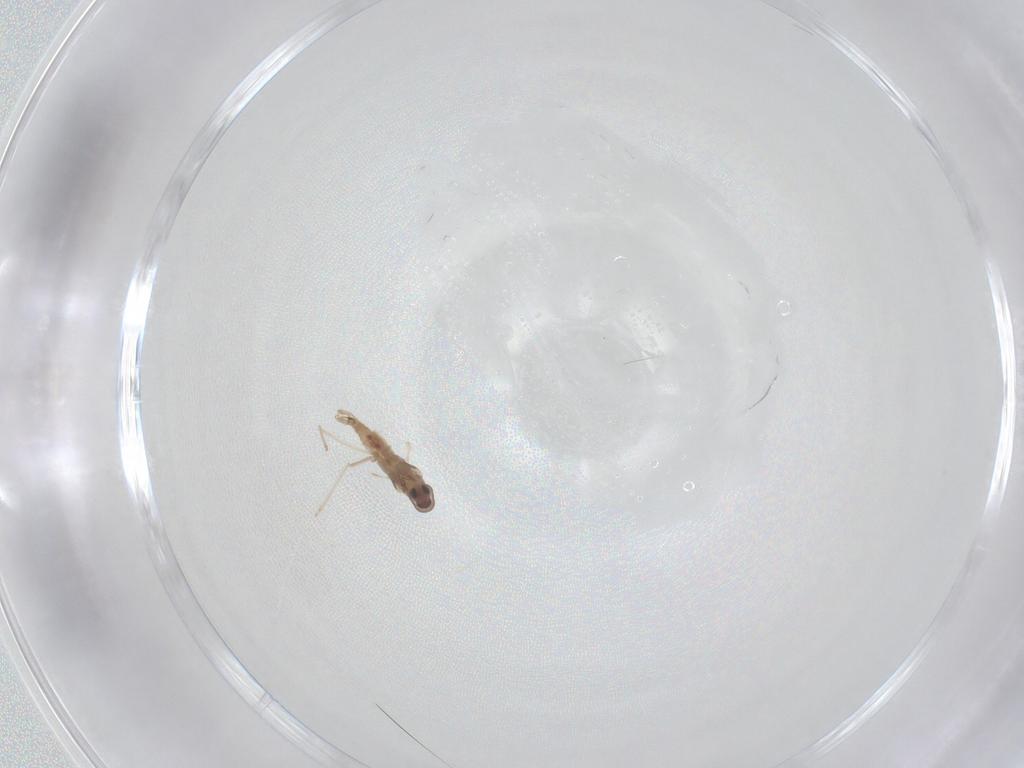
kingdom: Animalia
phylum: Arthropoda
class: Insecta
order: Diptera
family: Cecidomyiidae
